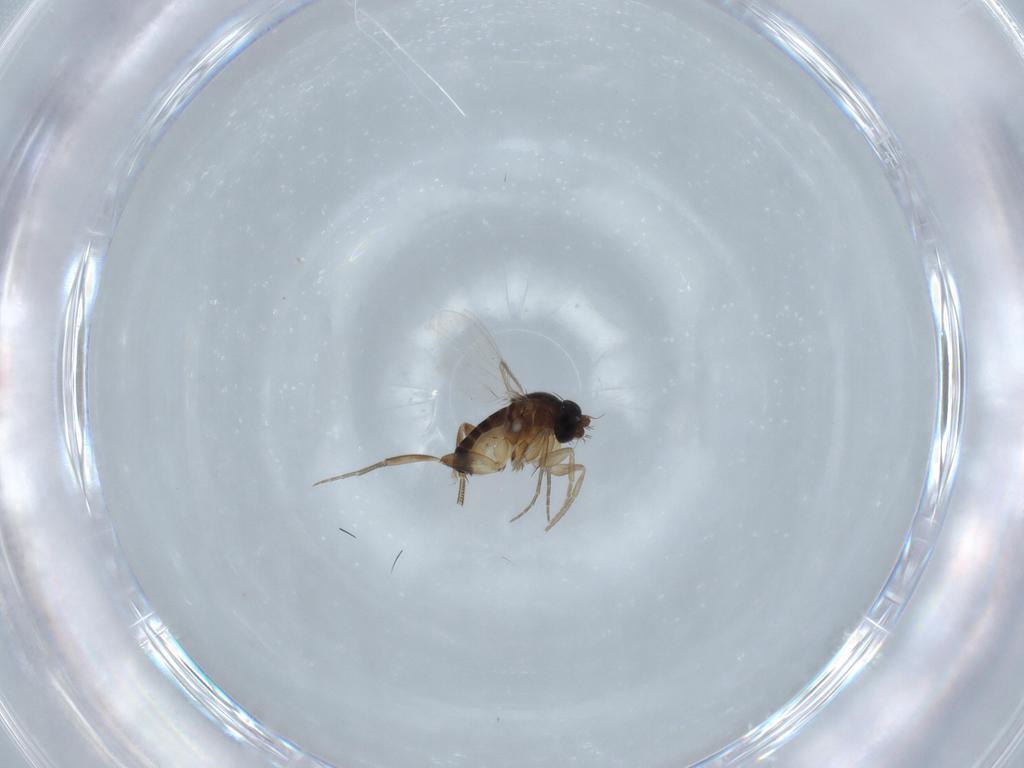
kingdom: Animalia
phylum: Arthropoda
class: Insecta
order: Diptera
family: Phoridae
